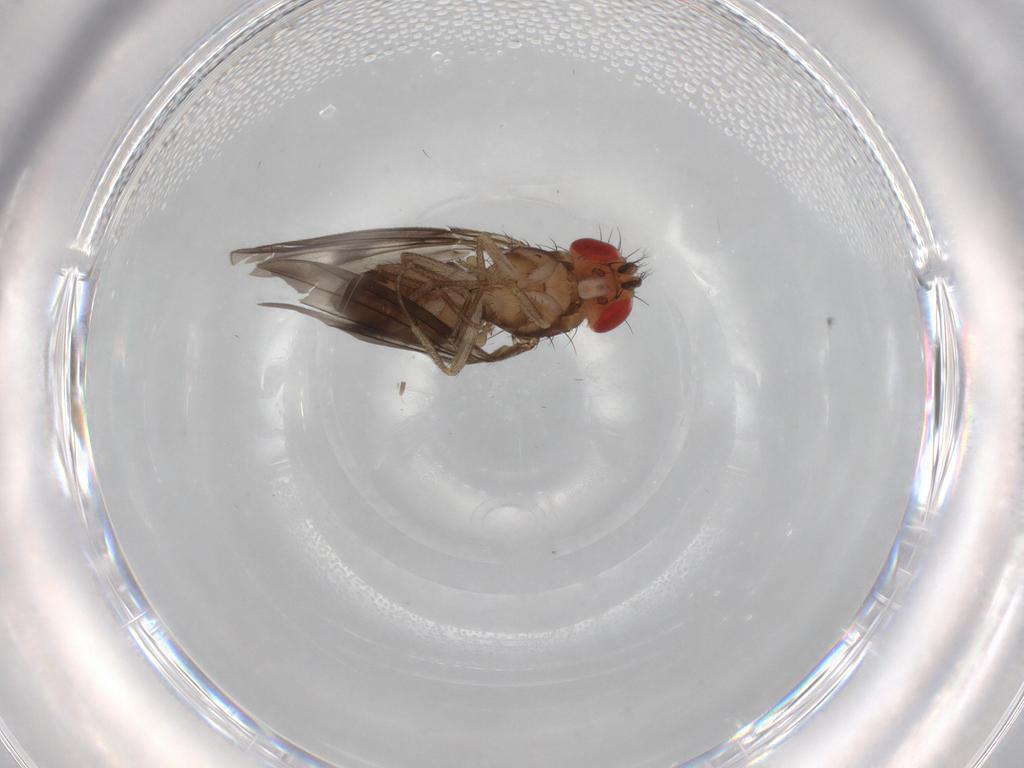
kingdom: Animalia
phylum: Arthropoda
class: Insecta
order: Diptera
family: Drosophilidae
